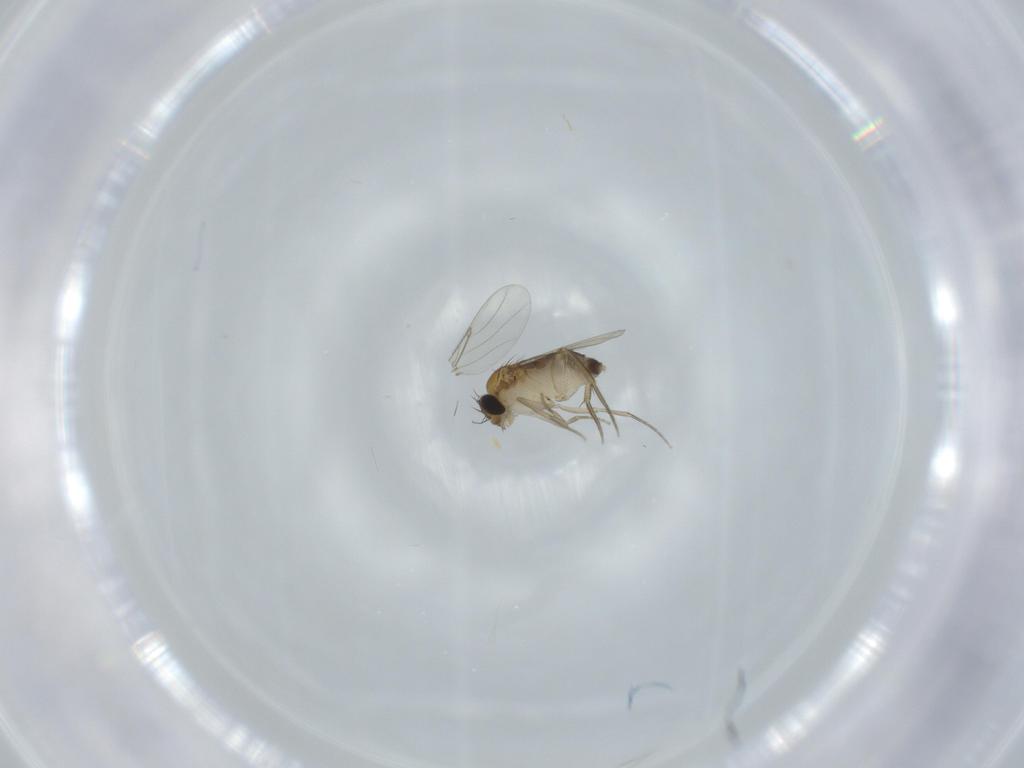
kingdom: Animalia
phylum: Arthropoda
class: Insecta
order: Diptera
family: Phoridae
